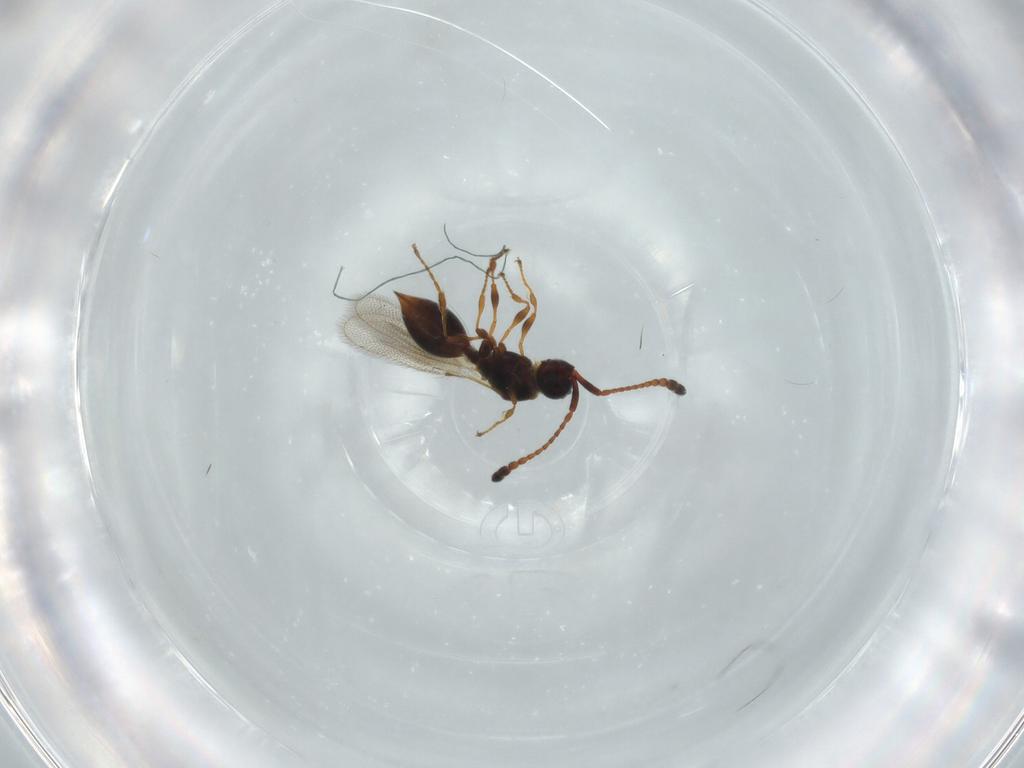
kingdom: Animalia
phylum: Arthropoda
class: Insecta
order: Hymenoptera
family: Diapriidae
